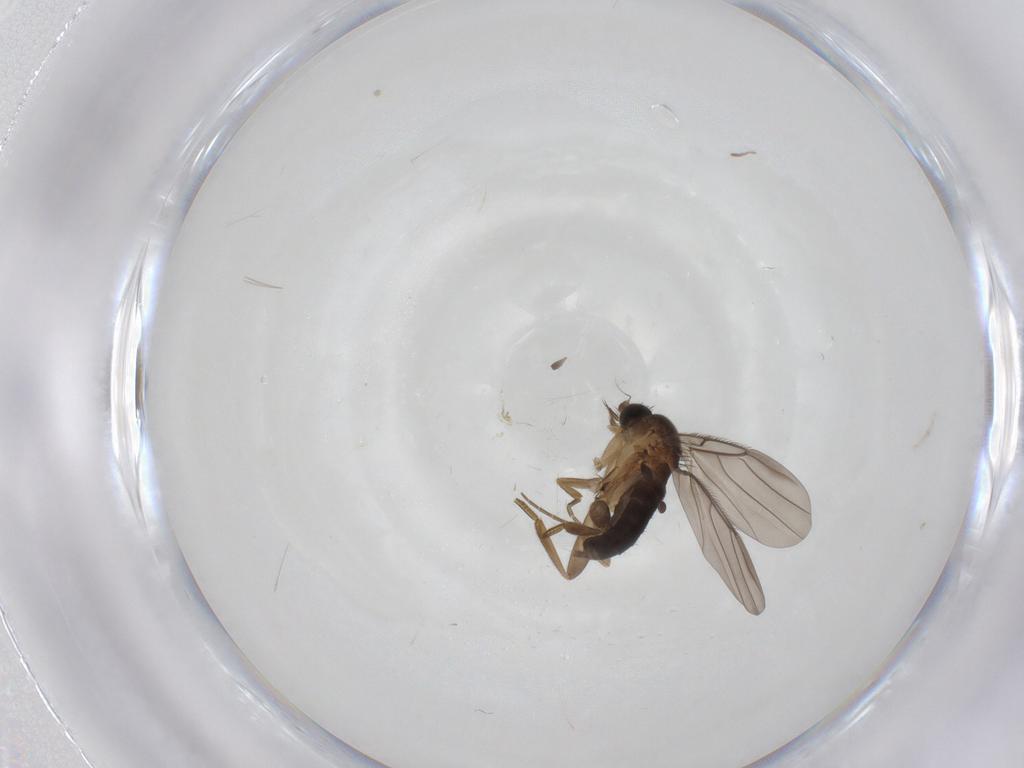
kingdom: Animalia
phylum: Arthropoda
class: Insecta
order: Diptera
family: Phoridae
